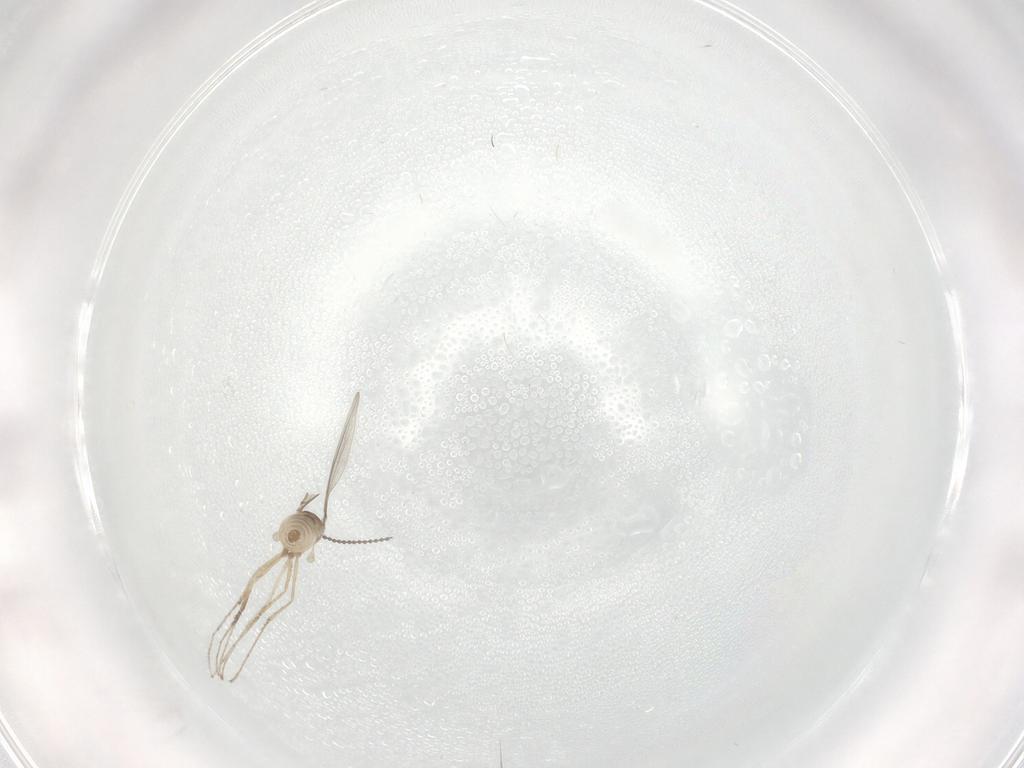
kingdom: Animalia
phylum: Arthropoda
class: Insecta
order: Diptera
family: Cecidomyiidae
